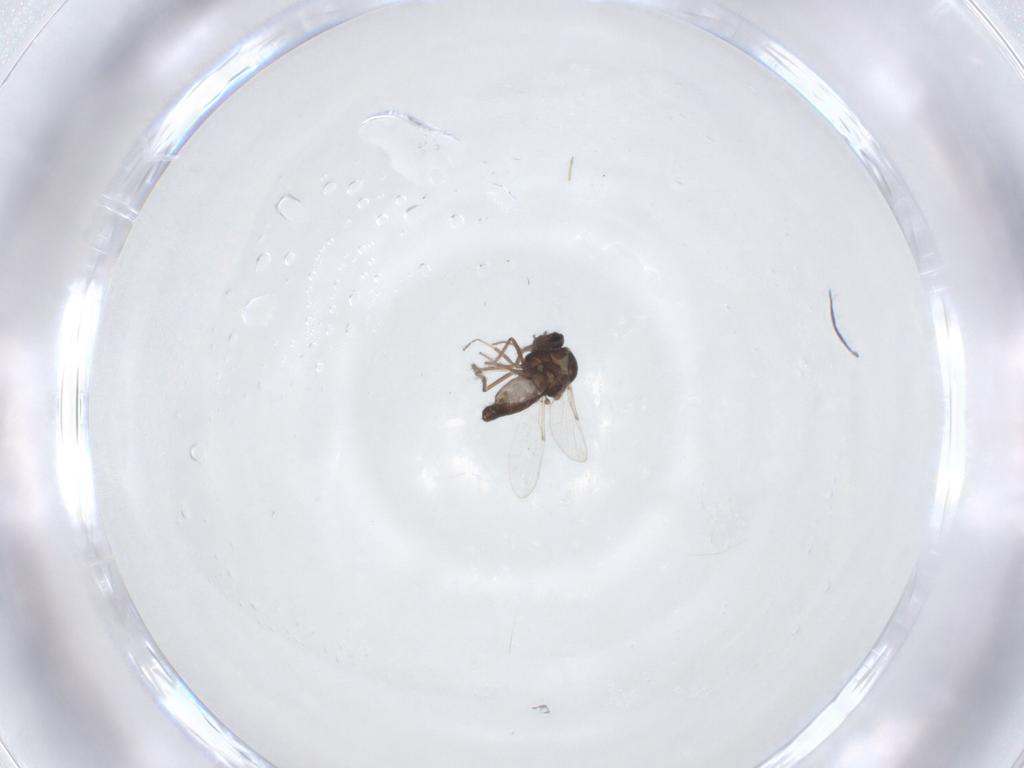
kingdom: Animalia
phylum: Arthropoda
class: Insecta
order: Diptera
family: Ceratopogonidae
